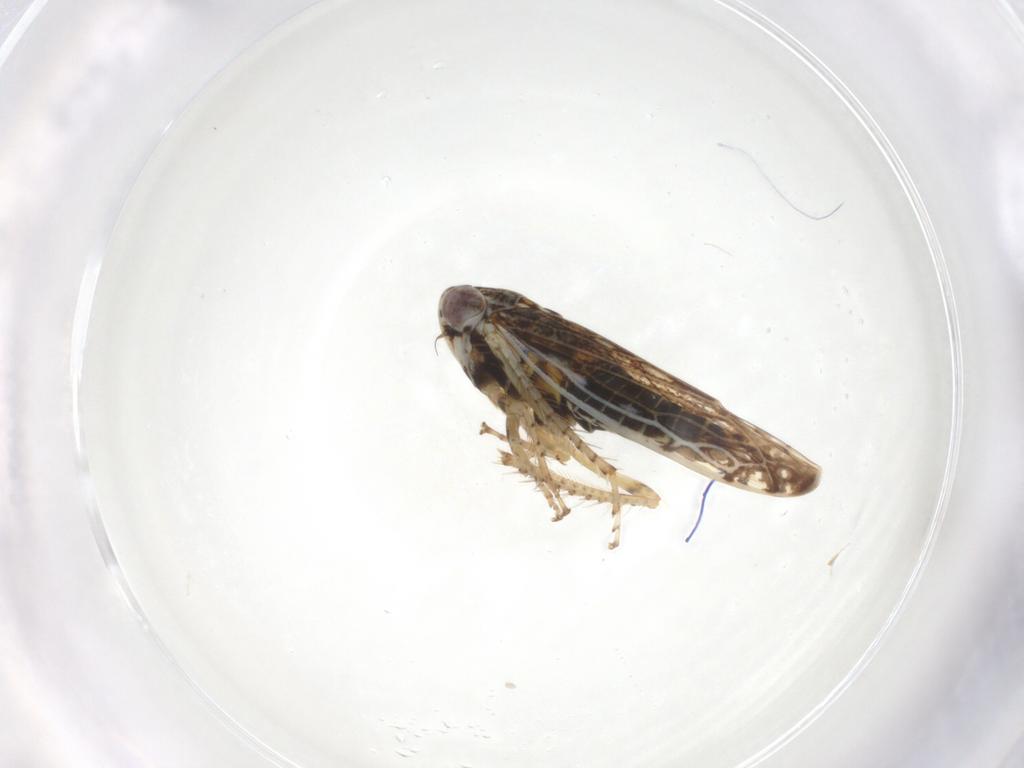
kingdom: Animalia
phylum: Arthropoda
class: Insecta
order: Hemiptera
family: Cicadellidae
